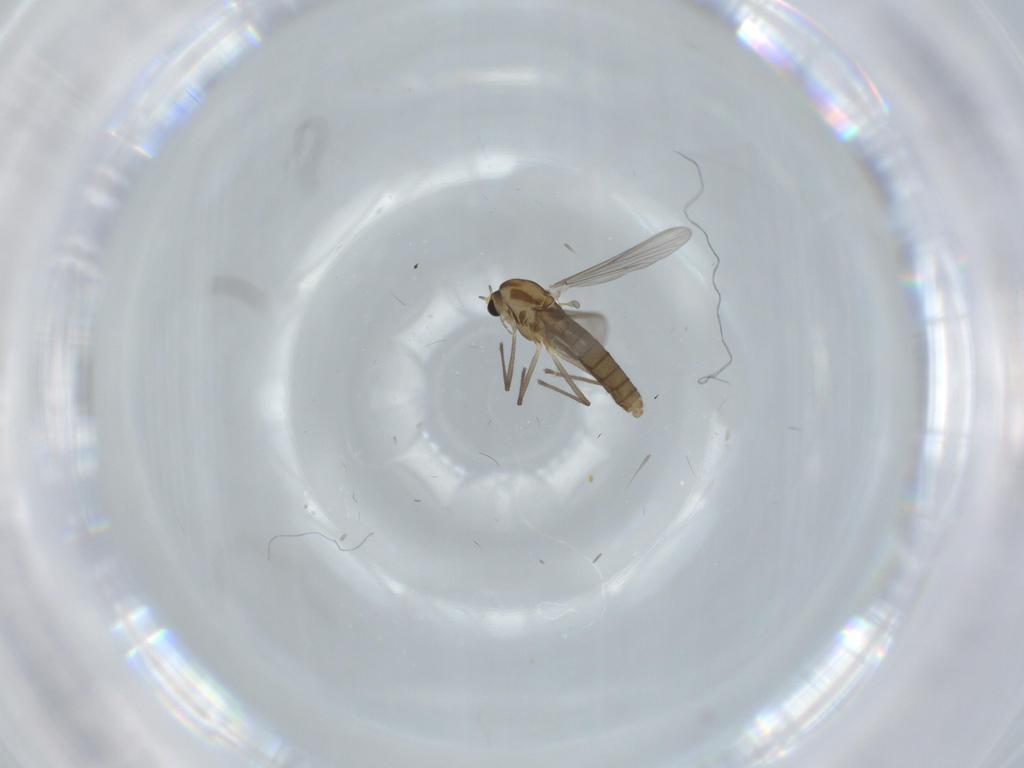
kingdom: Animalia
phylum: Arthropoda
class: Insecta
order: Diptera
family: Chironomidae
